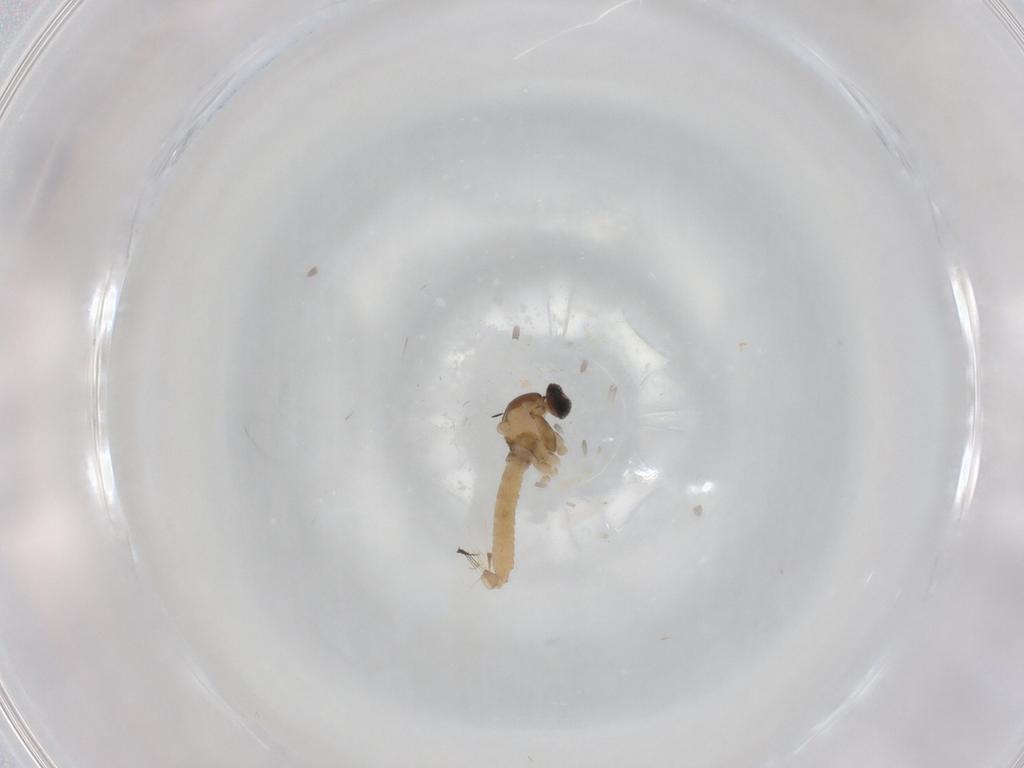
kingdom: Animalia
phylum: Arthropoda
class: Insecta
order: Diptera
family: Cecidomyiidae
